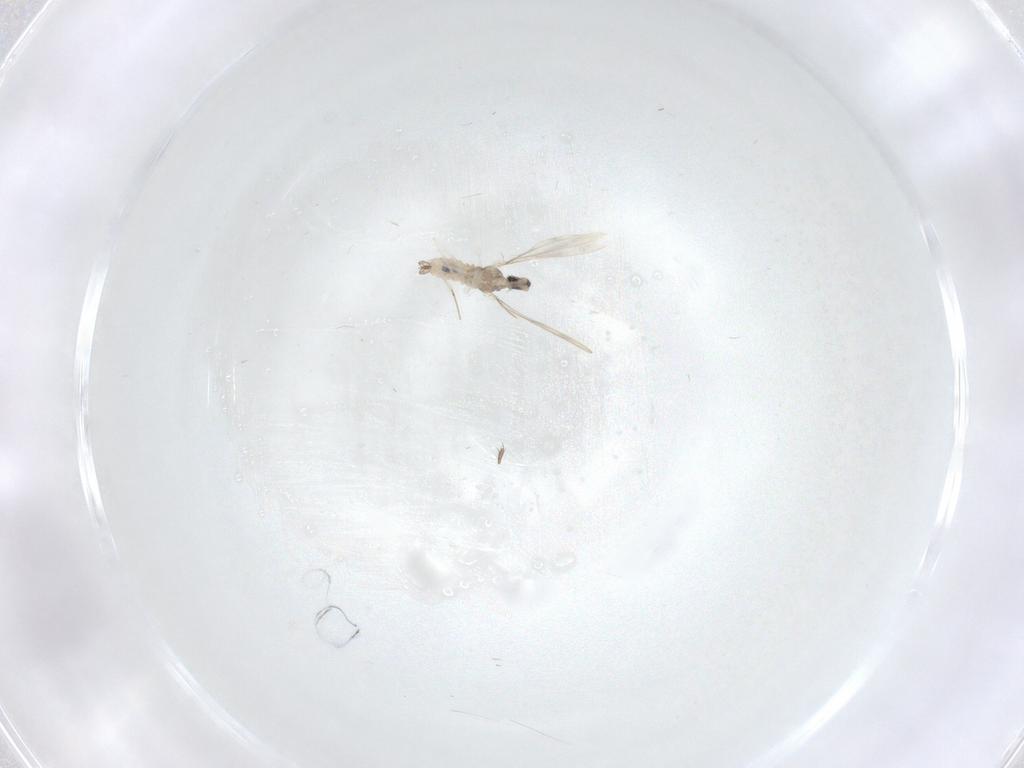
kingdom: Animalia
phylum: Arthropoda
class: Insecta
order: Diptera
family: Cecidomyiidae
